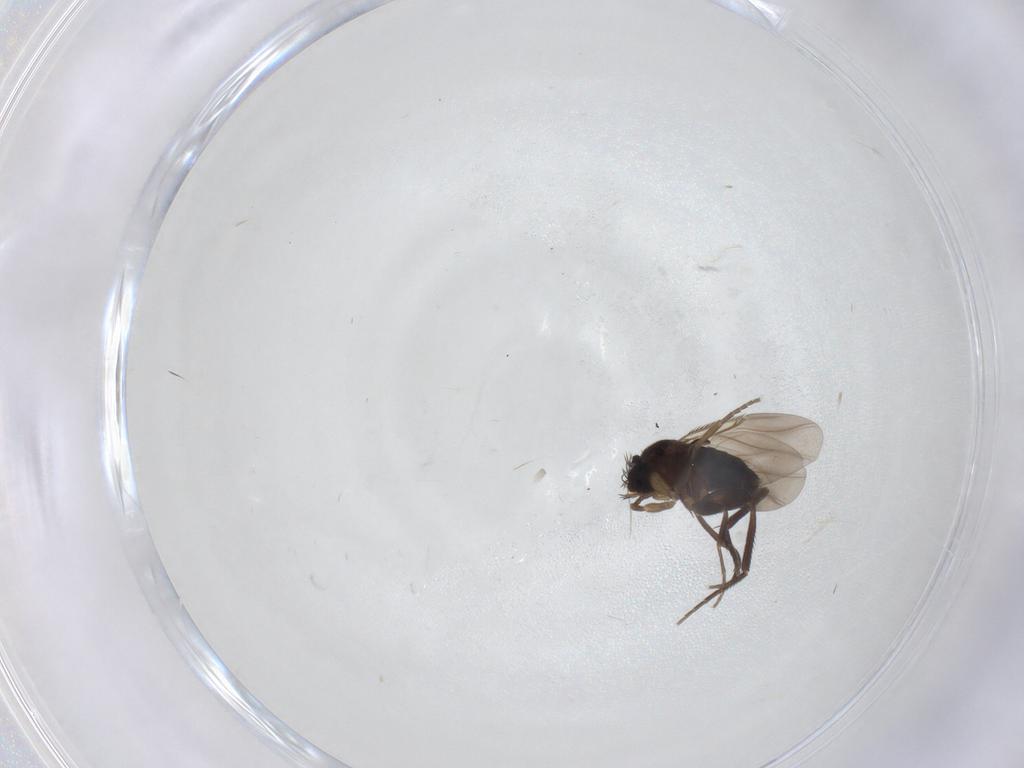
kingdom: Animalia
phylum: Arthropoda
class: Insecta
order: Diptera
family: Phoridae
